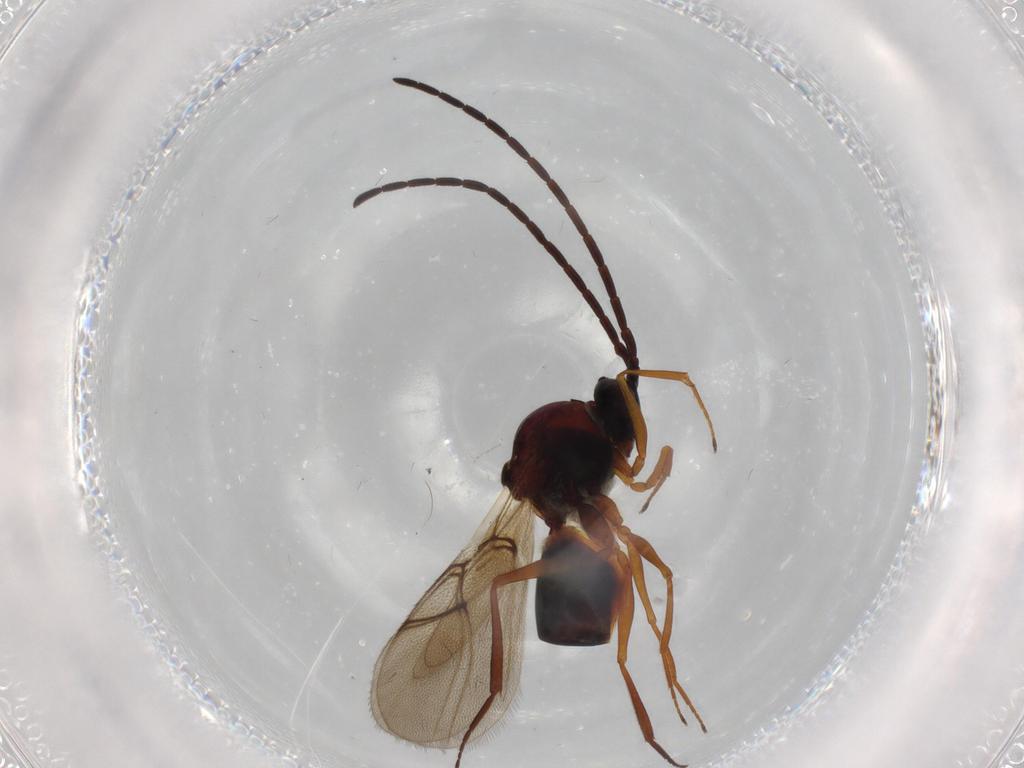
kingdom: Animalia
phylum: Arthropoda
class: Insecta
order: Hymenoptera
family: Figitidae
